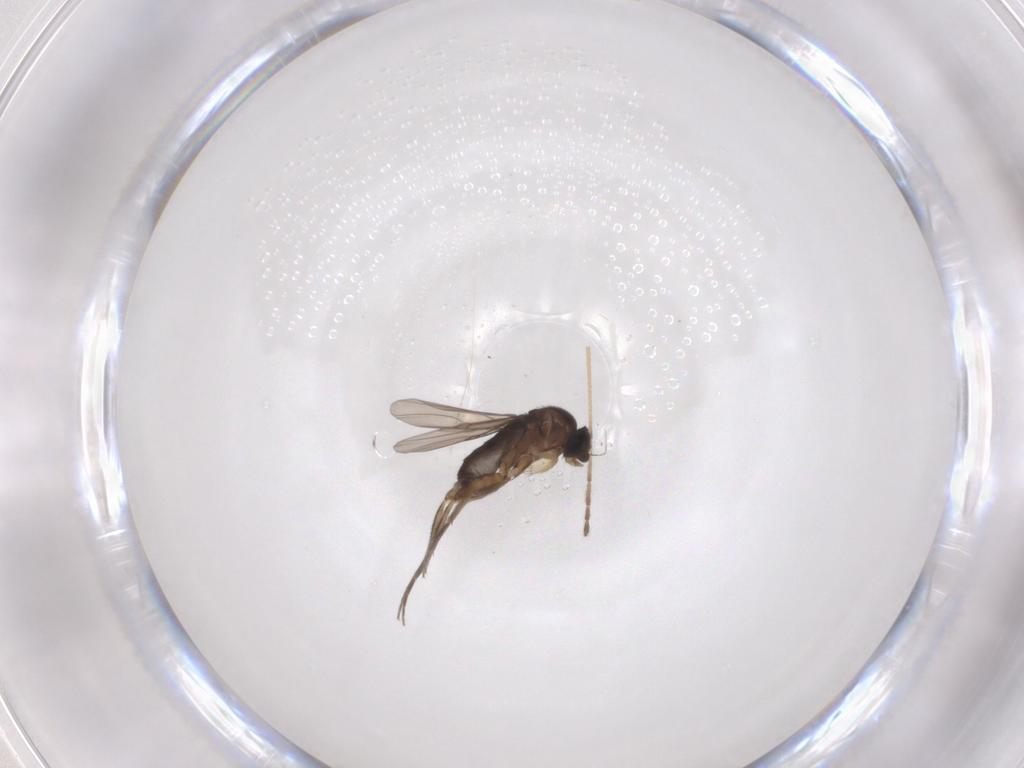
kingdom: Animalia
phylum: Arthropoda
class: Insecta
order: Diptera
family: Phoridae
